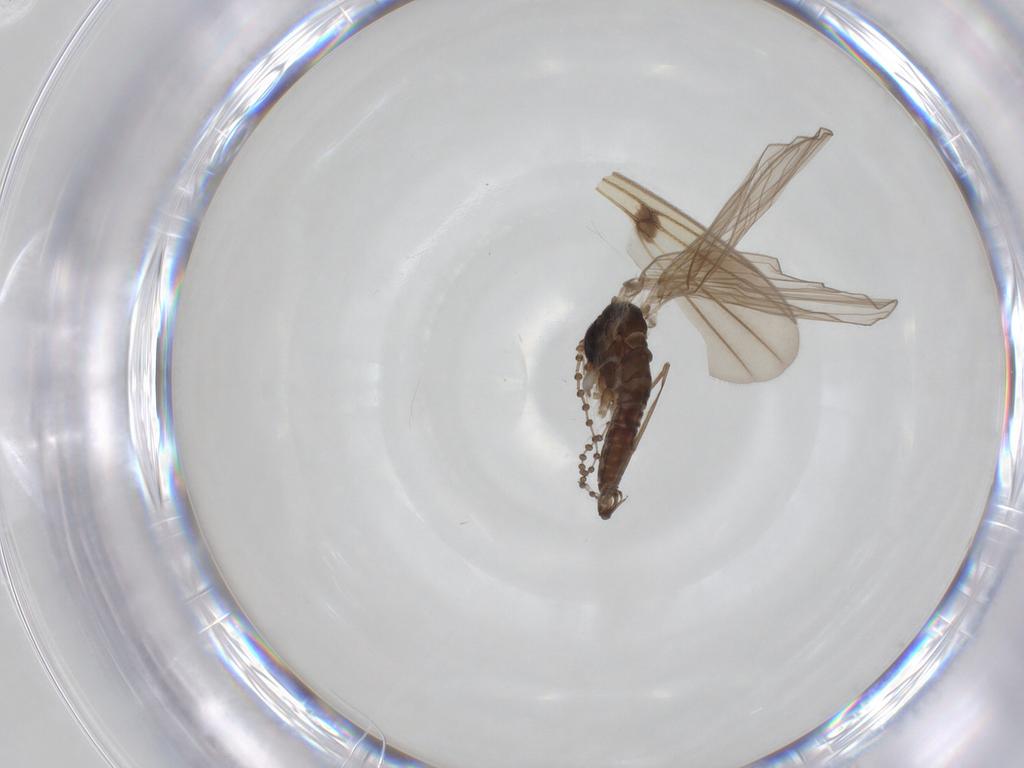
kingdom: Animalia
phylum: Arthropoda
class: Insecta
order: Diptera
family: Psychodidae
